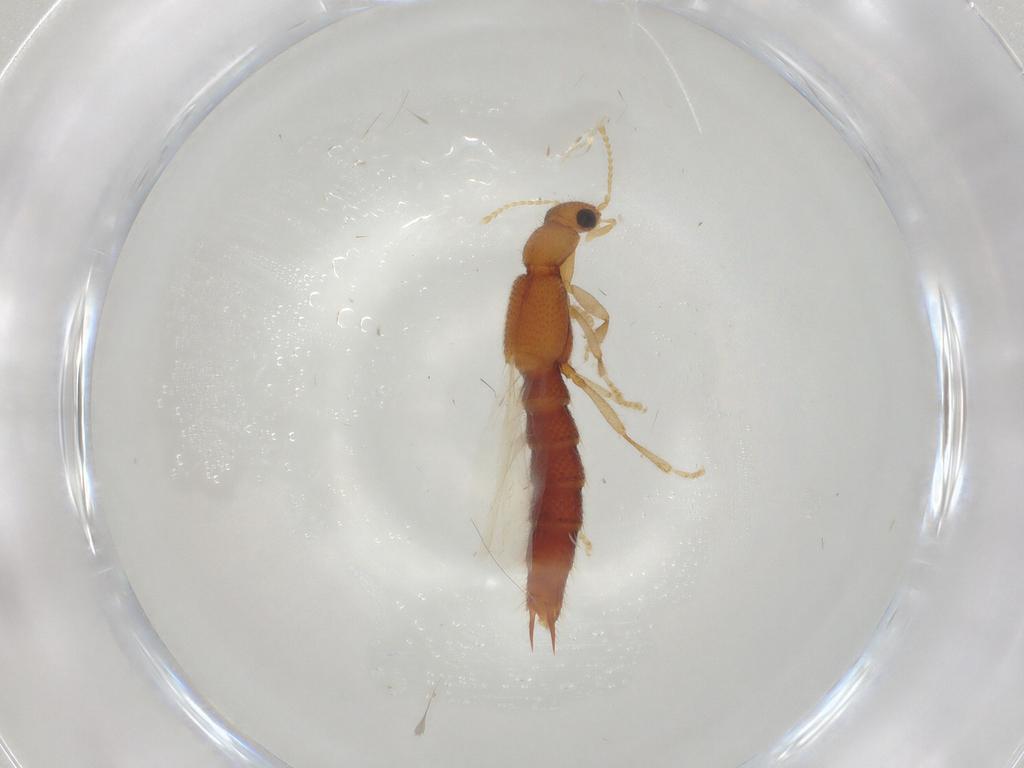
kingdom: Animalia
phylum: Arthropoda
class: Insecta
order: Coleoptera
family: Staphylinidae
